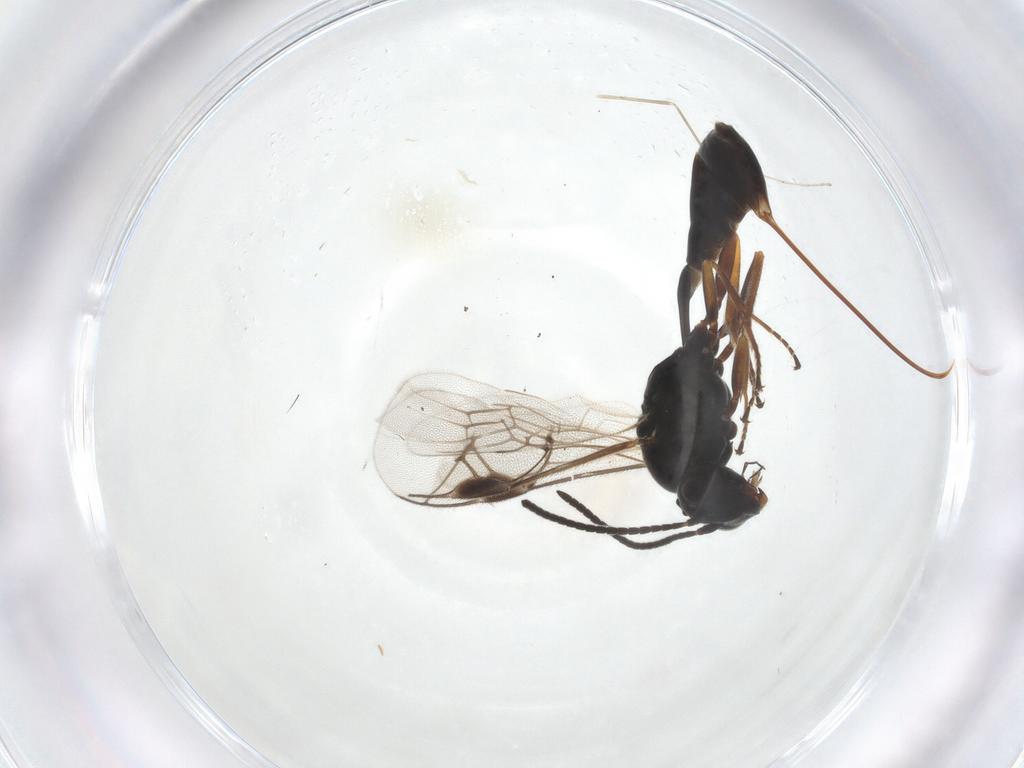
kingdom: Animalia
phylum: Arthropoda
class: Insecta
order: Hymenoptera
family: Ichneumonidae
